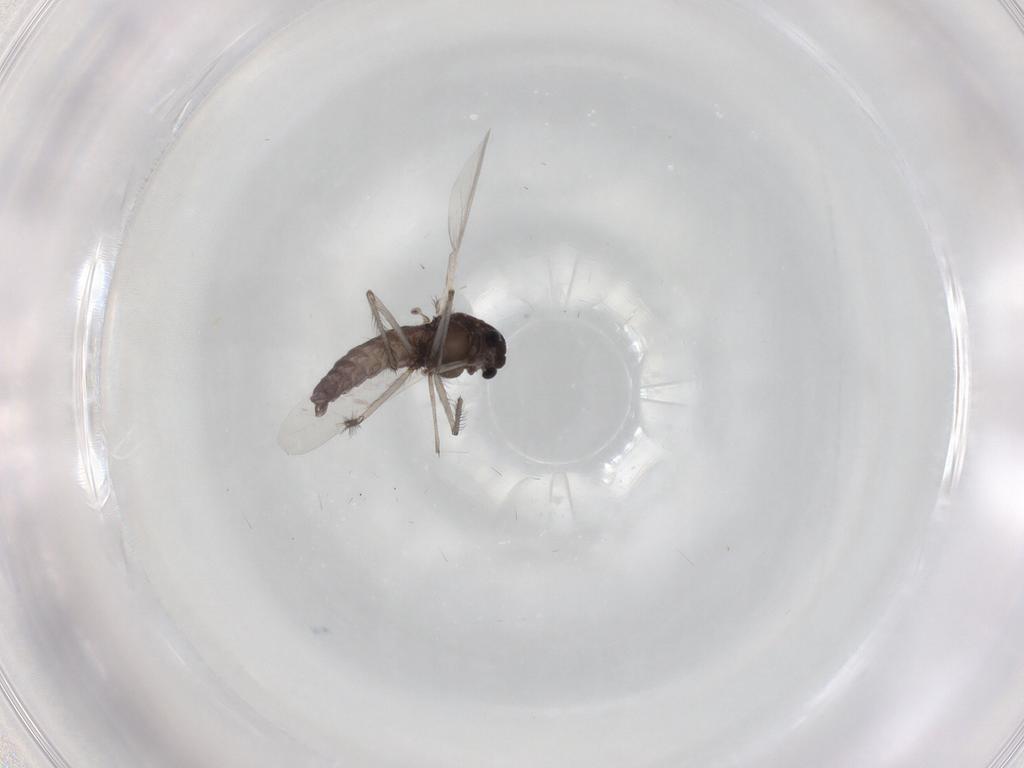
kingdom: Animalia
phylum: Arthropoda
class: Insecta
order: Diptera
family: Chironomidae
